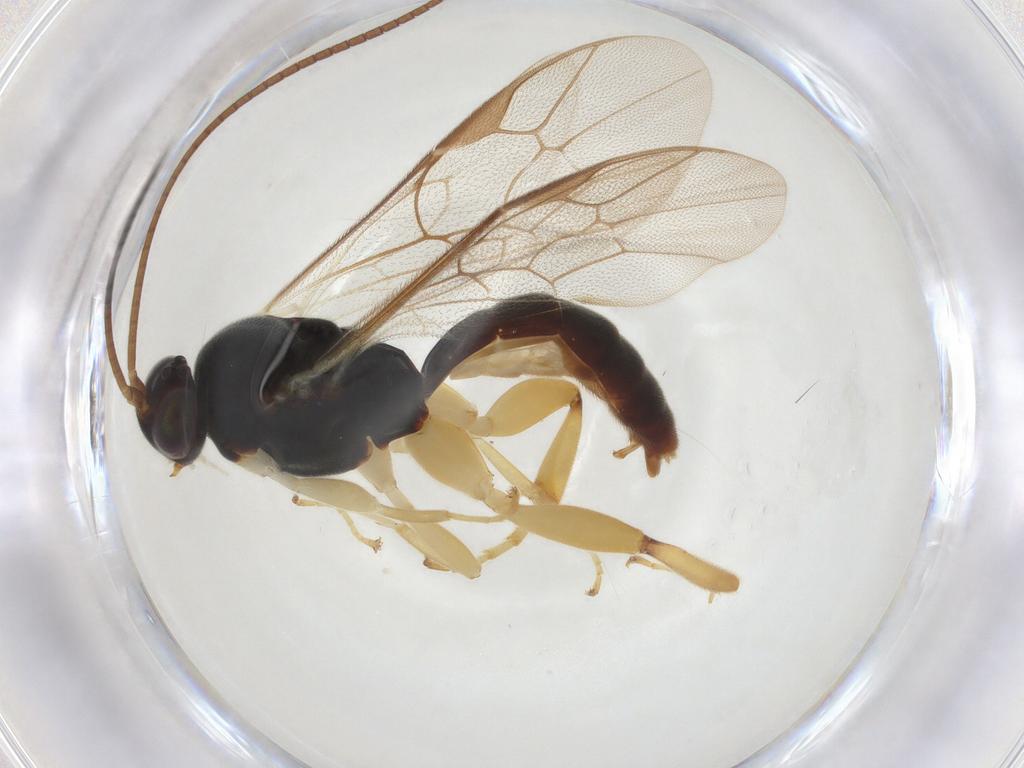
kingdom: Animalia
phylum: Arthropoda
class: Insecta
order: Hymenoptera
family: Ichneumonidae
